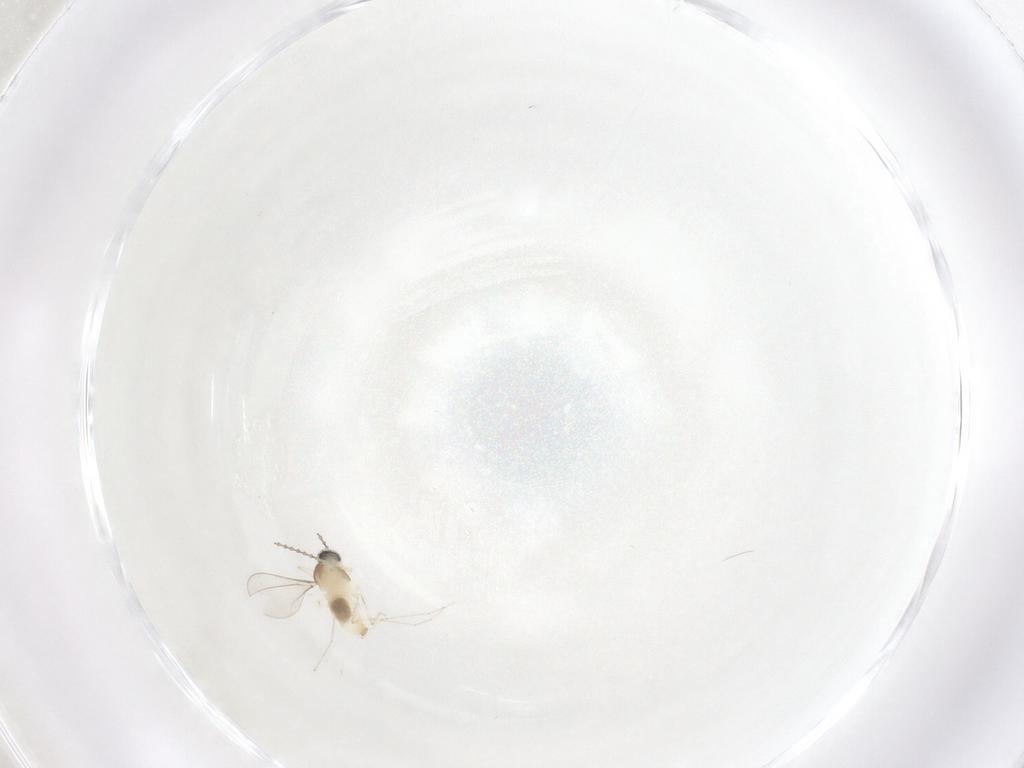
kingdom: Animalia
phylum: Arthropoda
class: Insecta
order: Diptera
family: Cecidomyiidae
